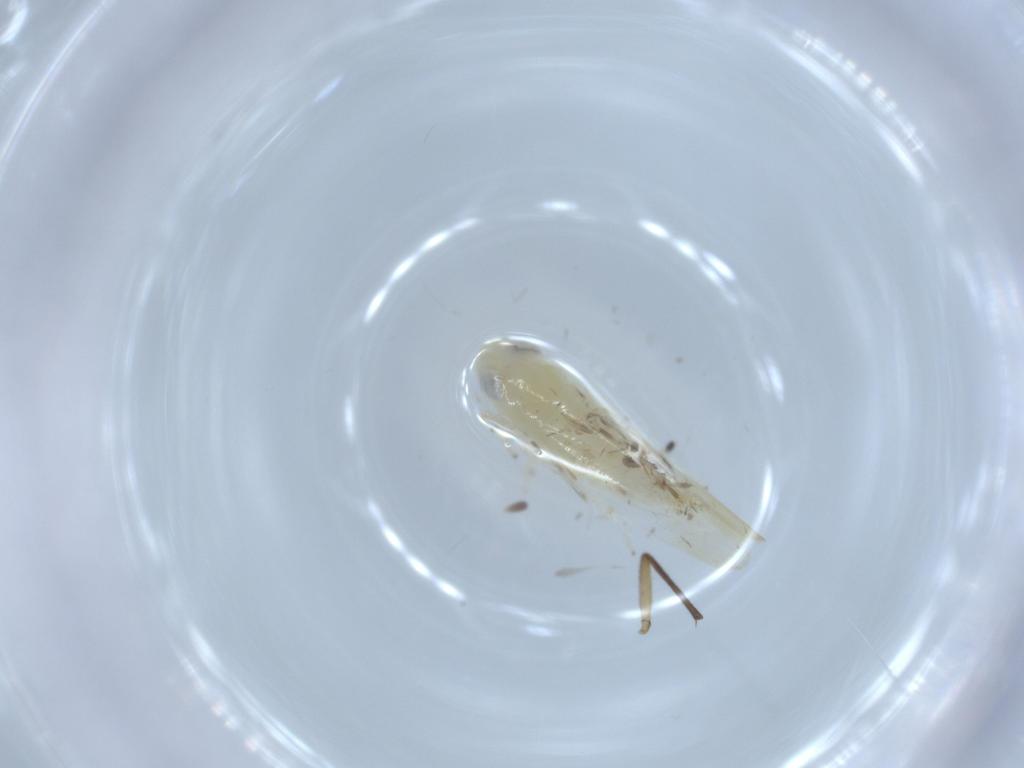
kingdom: Animalia
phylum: Arthropoda
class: Insecta
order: Hemiptera
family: Cicadellidae
